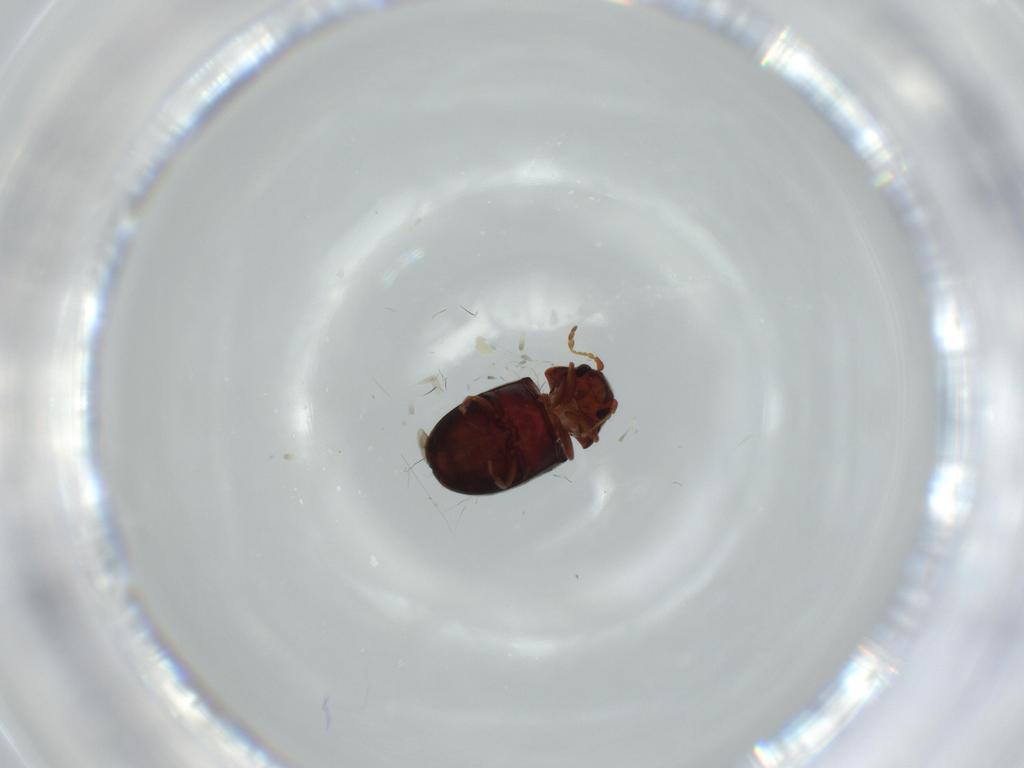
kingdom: Animalia
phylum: Arthropoda
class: Insecta
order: Coleoptera
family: Ptinidae
